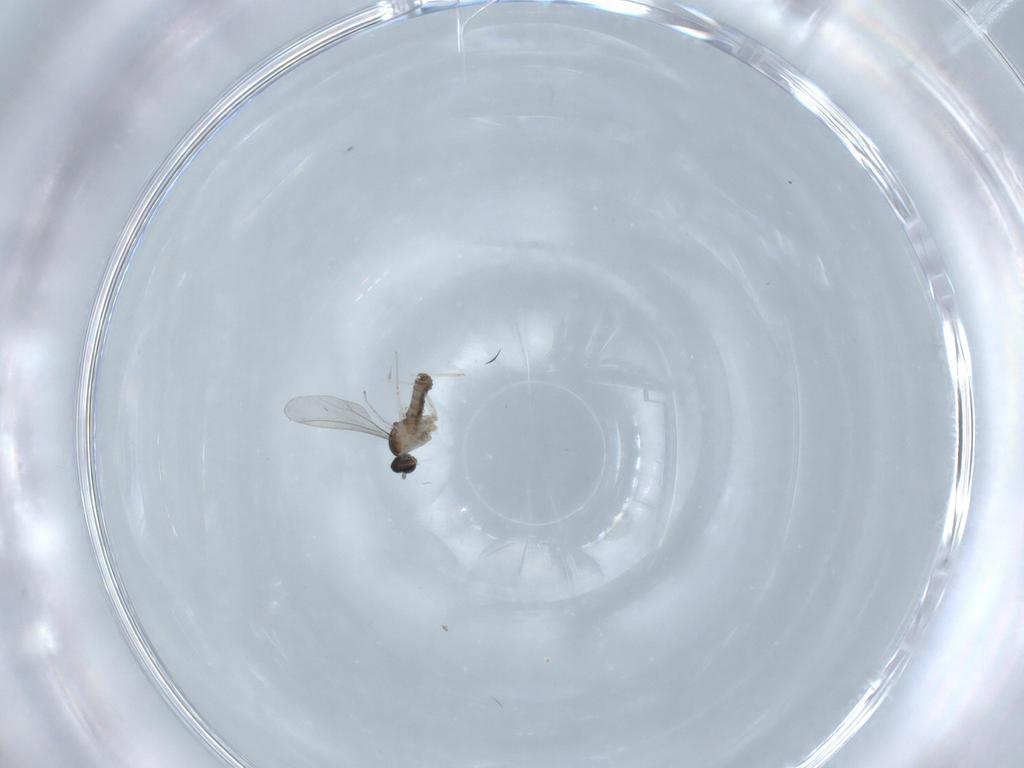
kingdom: Animalia
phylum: Arthropoda
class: Insecta
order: Diptera
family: Cecidomyiidae
